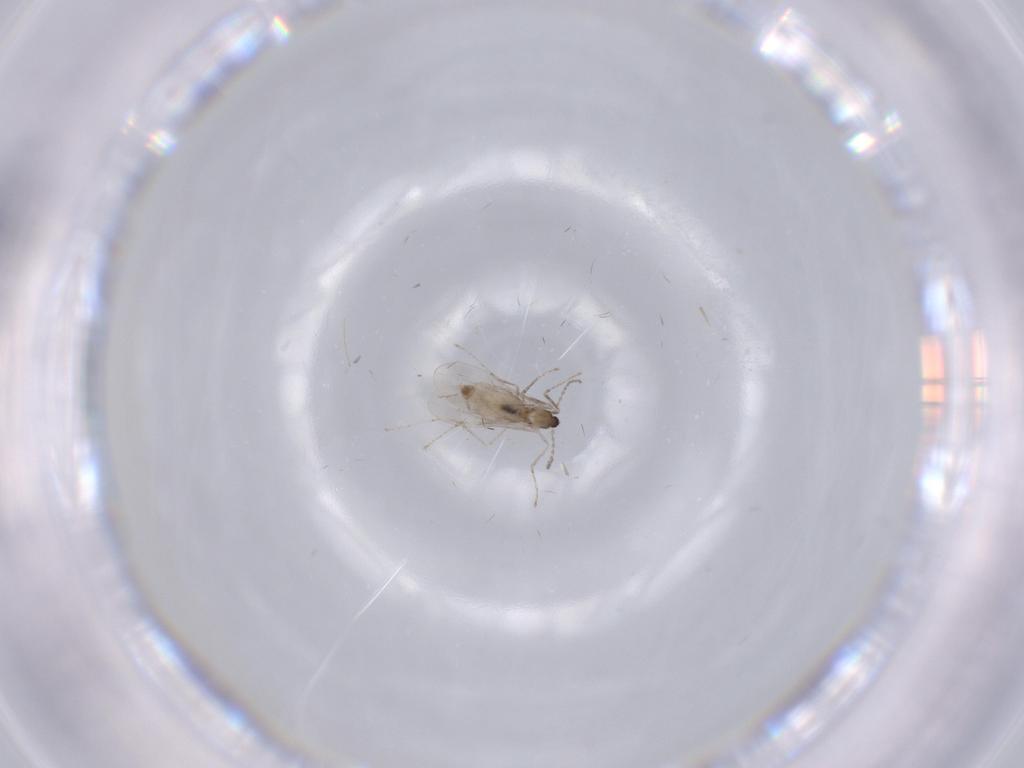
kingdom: Animalia
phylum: Arthropoda
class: Insecta
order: Diptera
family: Cecidomyiidae
